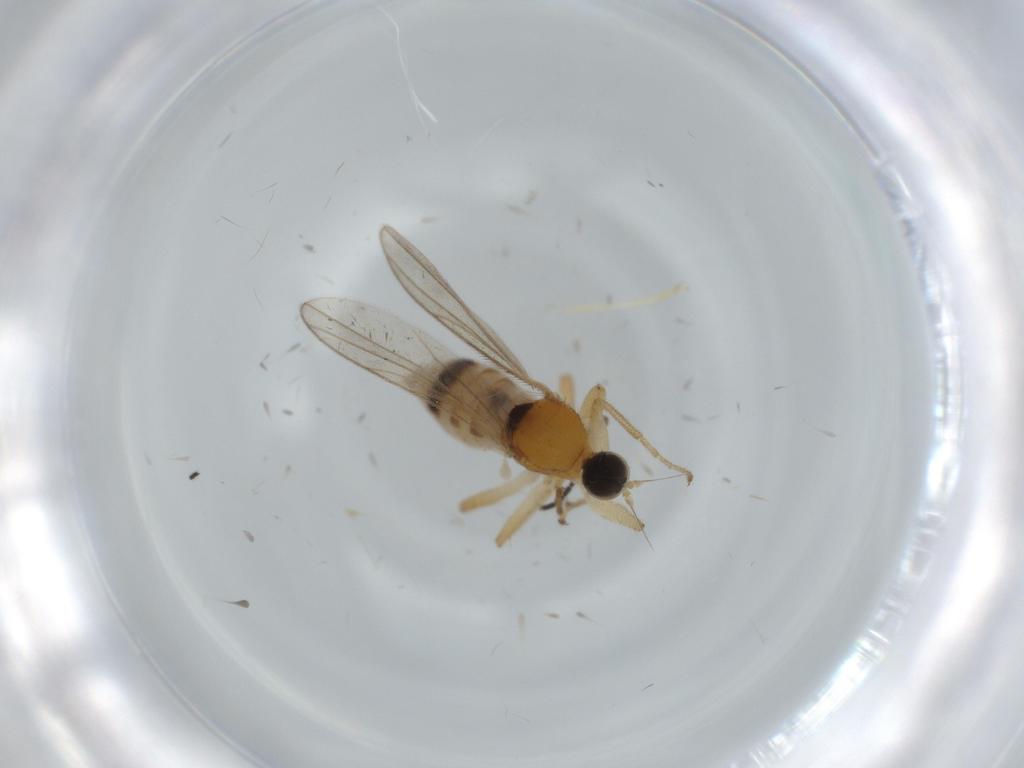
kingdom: Animalia
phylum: Arthropoda
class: Insecta
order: Diptera
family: Hybotidae
